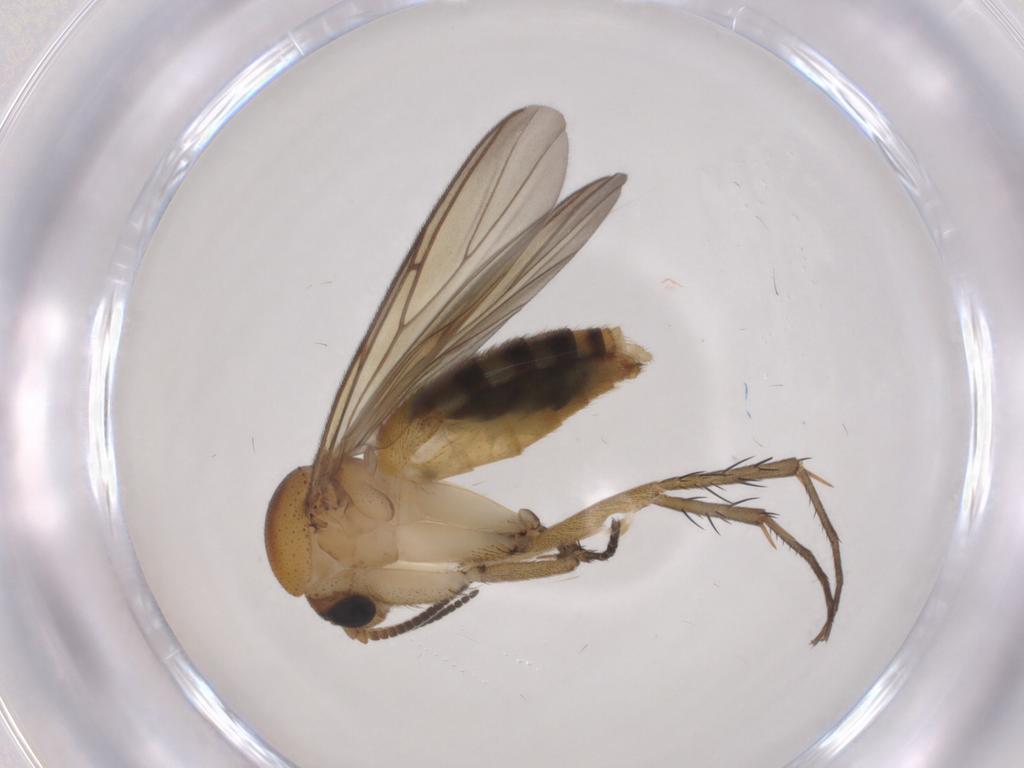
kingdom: Animalia
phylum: Arthropoda
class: Insecta
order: Diptera
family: Mycetophilidae
